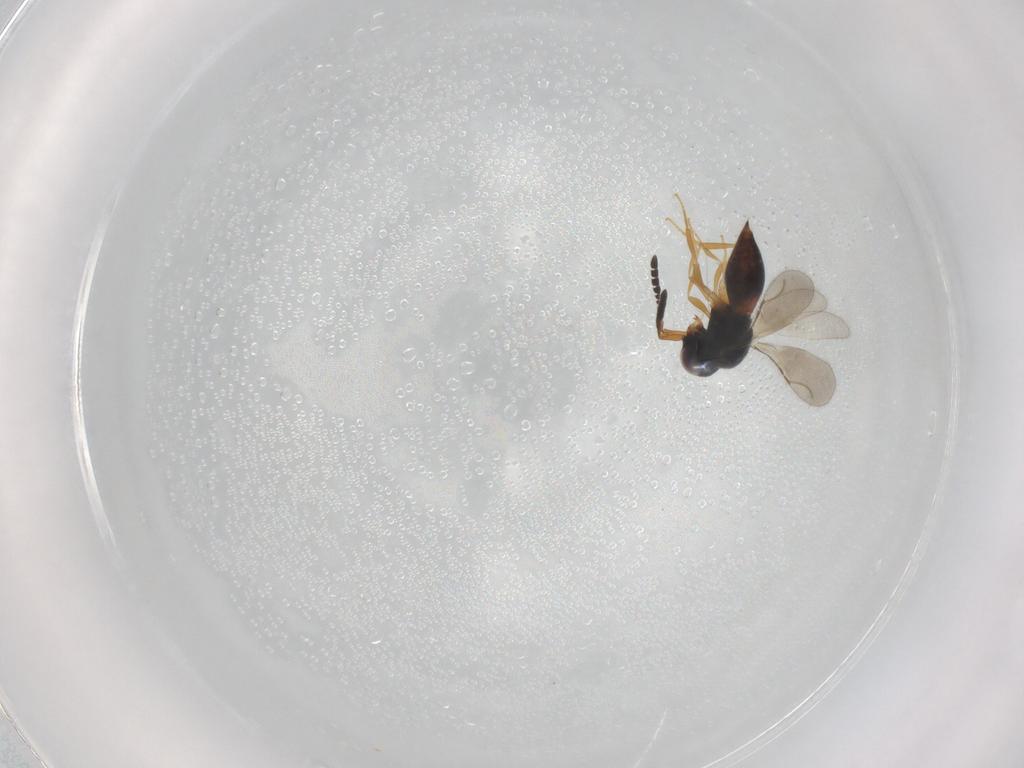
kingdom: Animalia
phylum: Arthropoda
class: Insecta
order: Hymenoptera
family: Scelionidae
